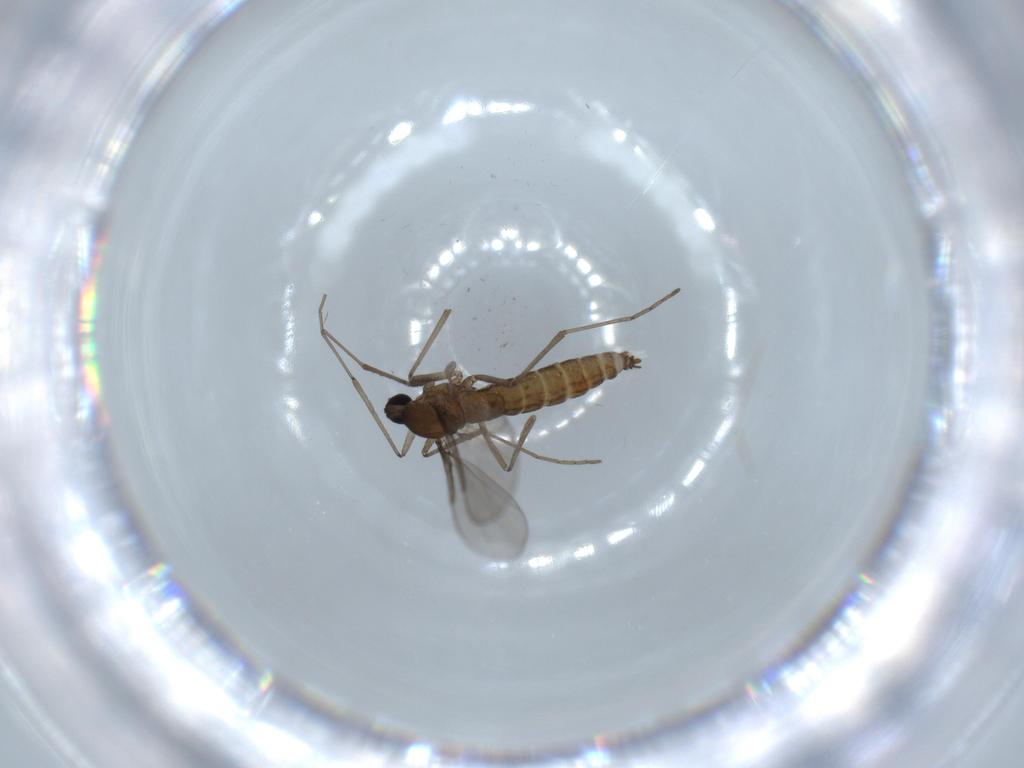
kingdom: Animalia
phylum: Arthropoda
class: Insecta
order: Diptera
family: Cecidomyiidae
